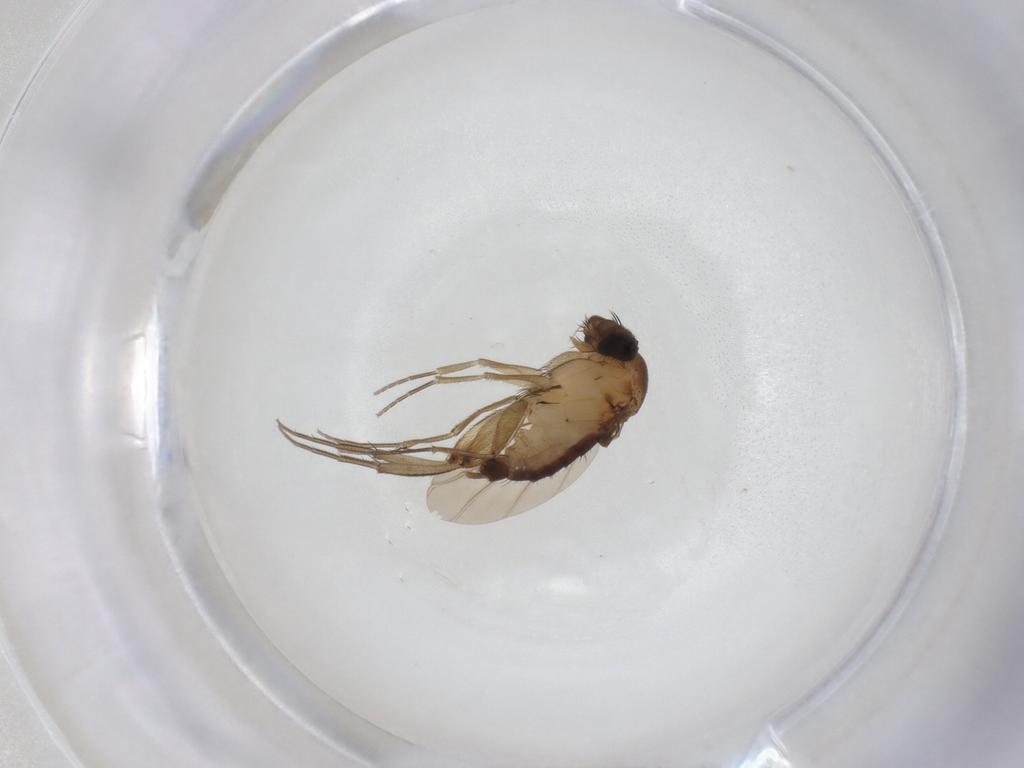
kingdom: Animalia
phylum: Arthropoda
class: Insecta
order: Diptera
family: Phoridae
